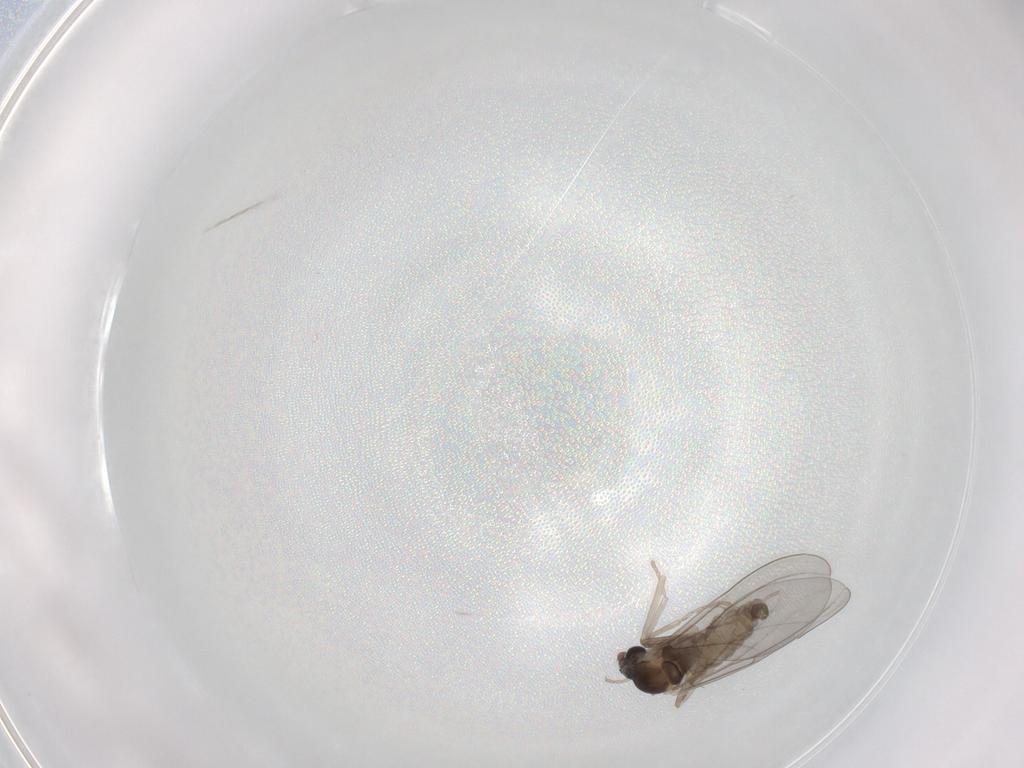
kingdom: Animalia
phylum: Arthropoda
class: Insecta
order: Diptera
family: Cecidomyiidae
